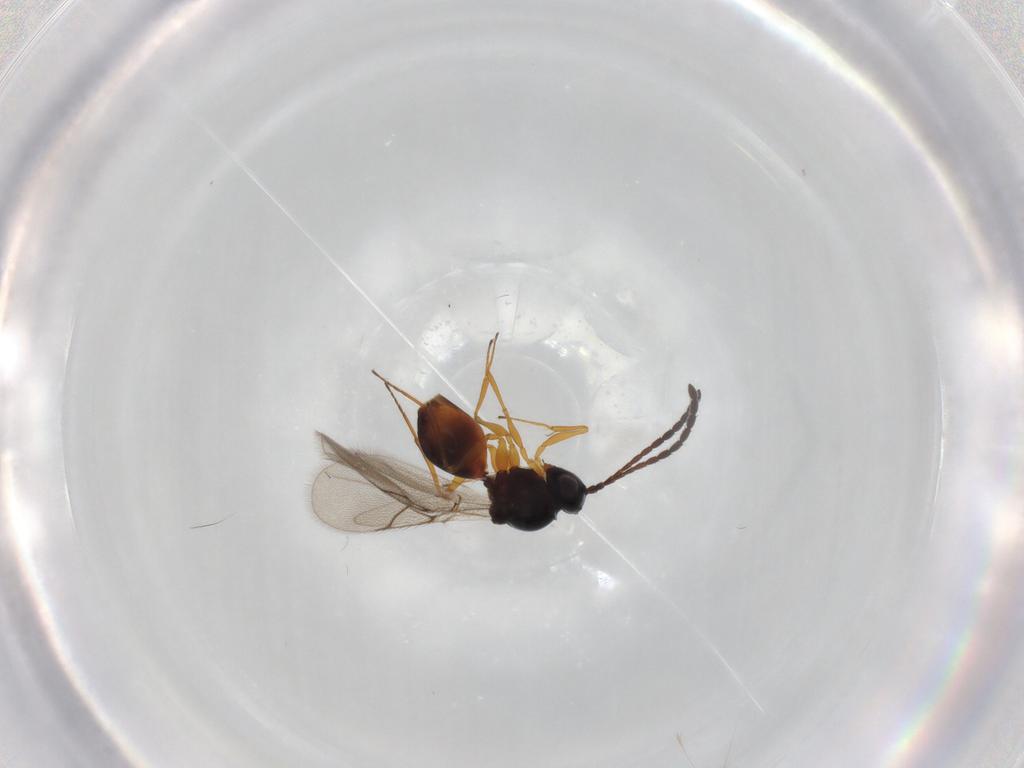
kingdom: Animalia
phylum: Arthropoda
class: Insecta
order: Hymenoptera
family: Figitidae
